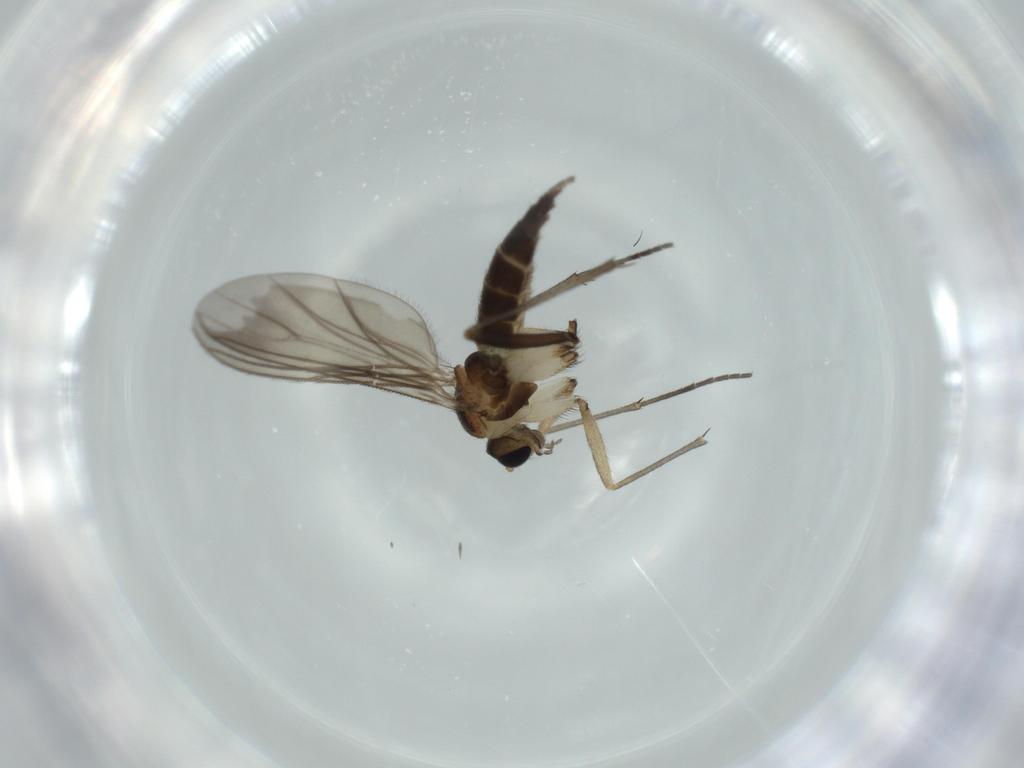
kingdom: Animalia
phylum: Arthropoda
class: Insecta
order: Diptera
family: Sciaridae
